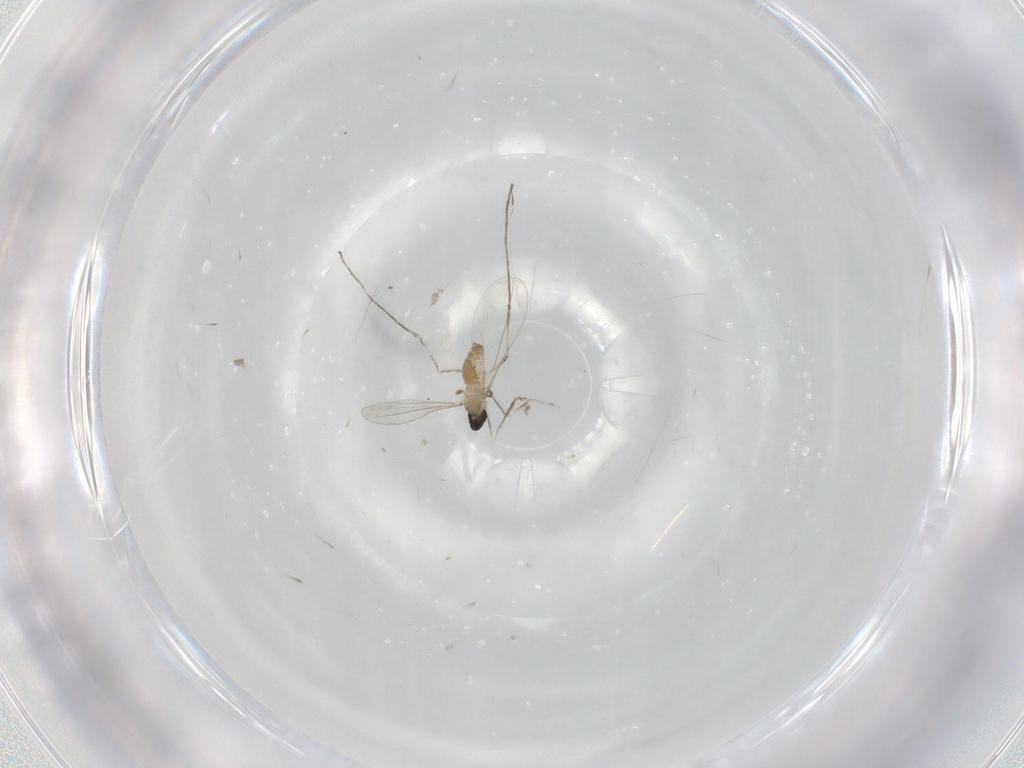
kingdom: Animalia
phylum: Arthropoda
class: Insecta
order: Diptera
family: Cecidomyiidae
